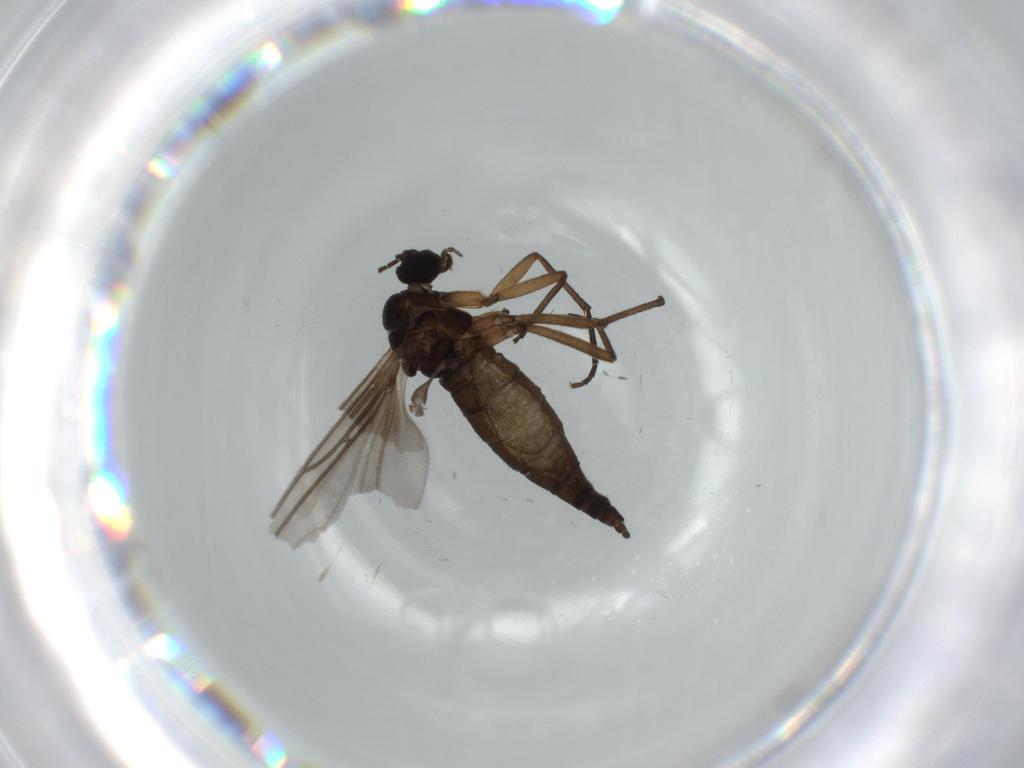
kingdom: Animalia
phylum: Arthropoda
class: Insecta
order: Diptera
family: Sciaridae
